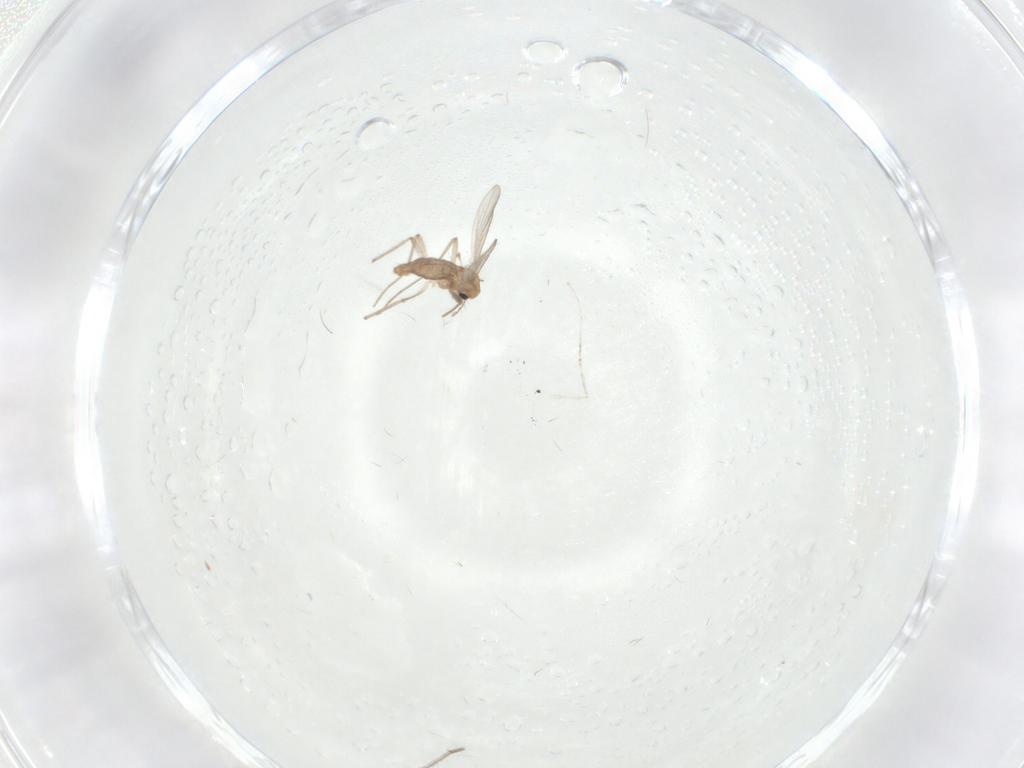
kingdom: Animalia
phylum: Arthropoda
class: Insecta
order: Diptera
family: Chironomidae
